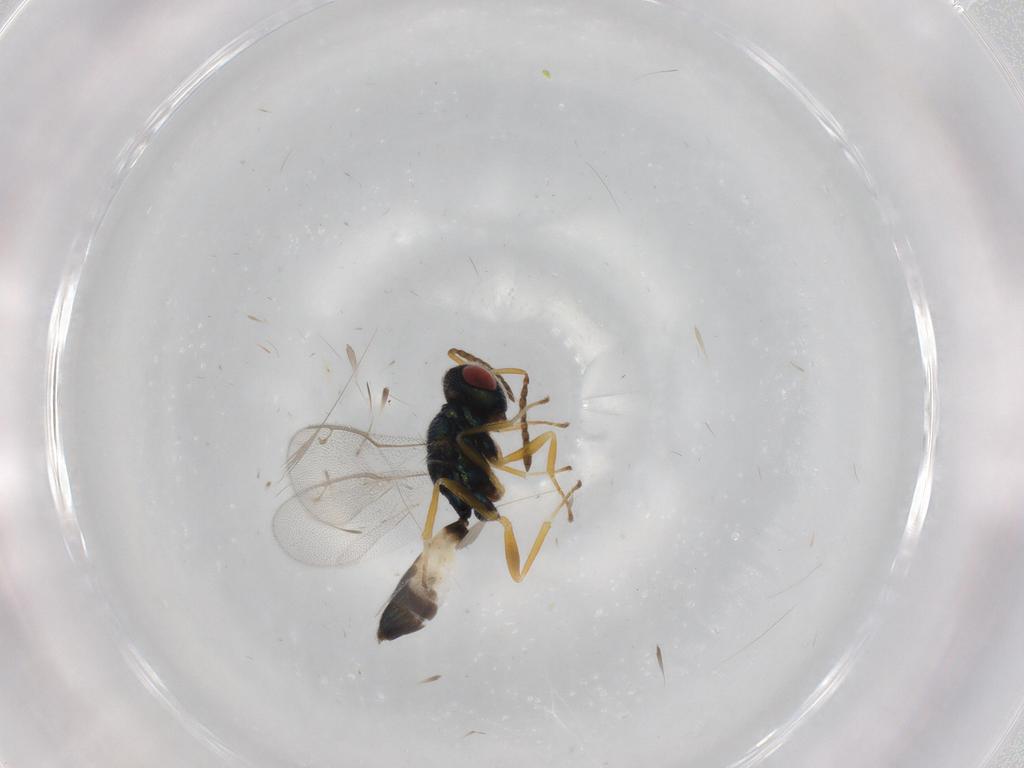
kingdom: Animalia
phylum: Arthropoda
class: Insecta
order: Hymenoptera
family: Pteromalidae
